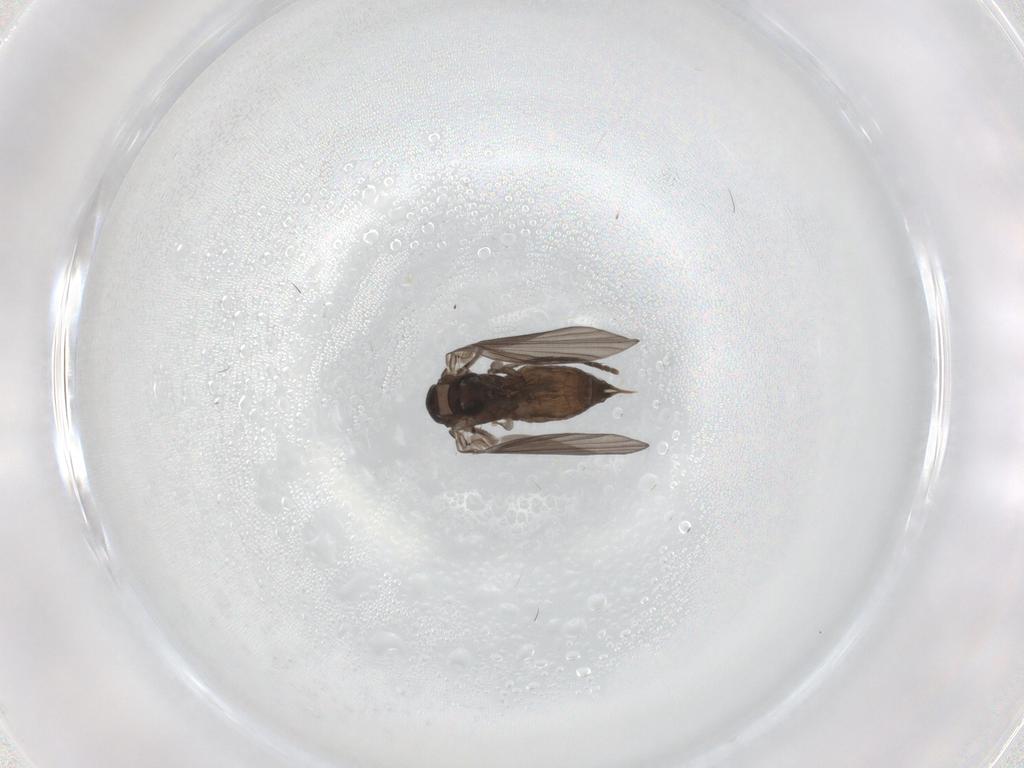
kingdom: Animalia
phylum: Arthropoda
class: Insecta
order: Diptera
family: Psychodidae
